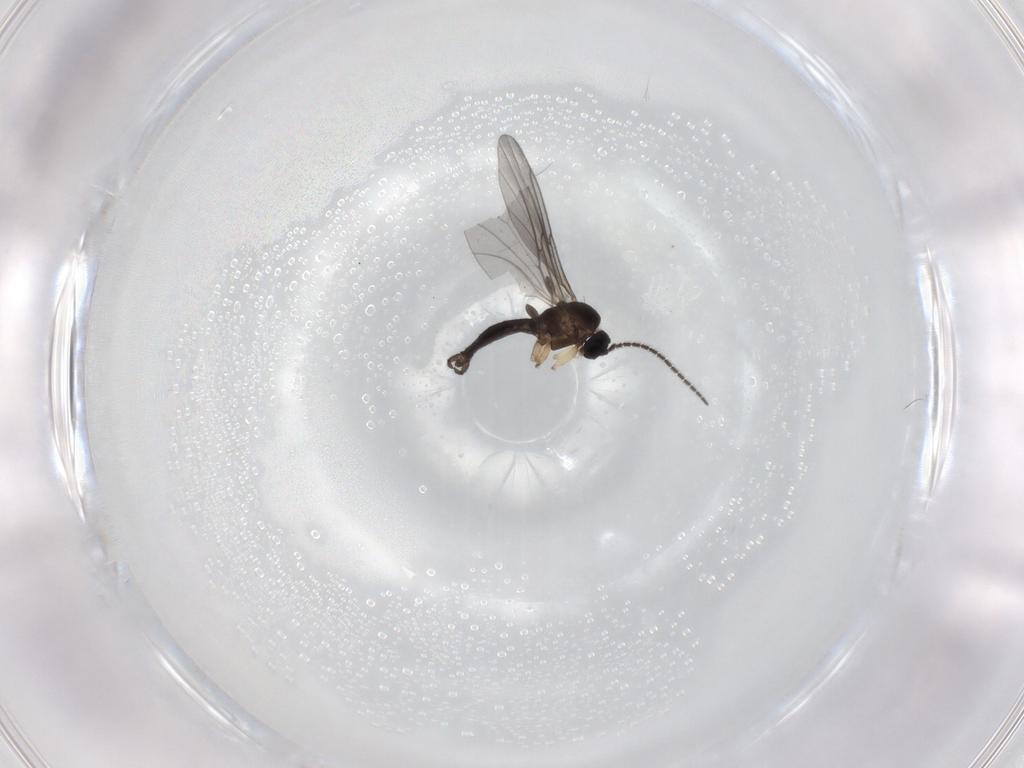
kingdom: Animalia
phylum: Arthropoda
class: Insecta
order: Diptera
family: Sciaridae
